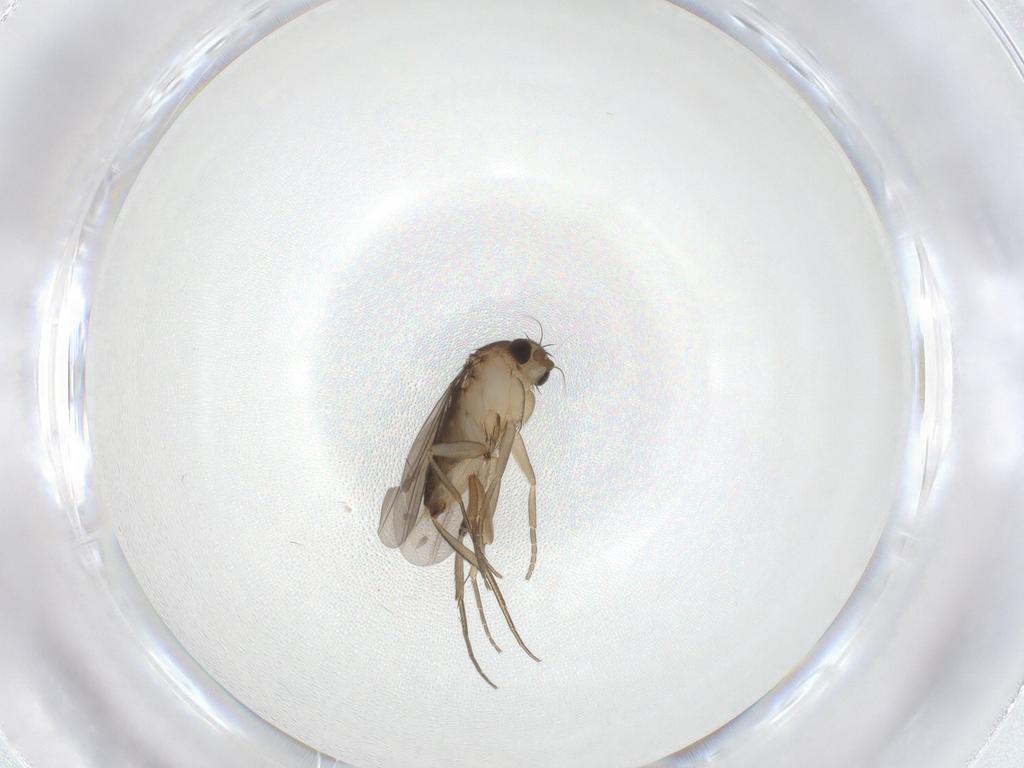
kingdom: Animalia
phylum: Arthropoda
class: Insecta
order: Diptera
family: Phoridae
